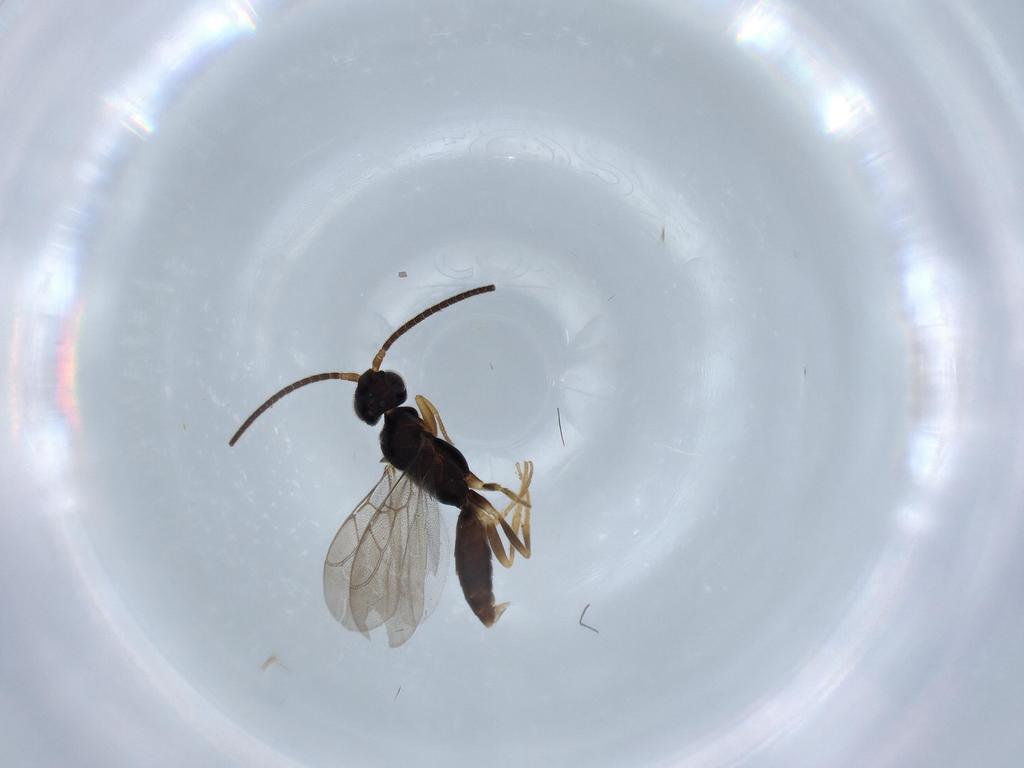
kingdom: Animalia
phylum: Arthropoda
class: Insecta
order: Hymenoptera
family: Sclerogibbidae
